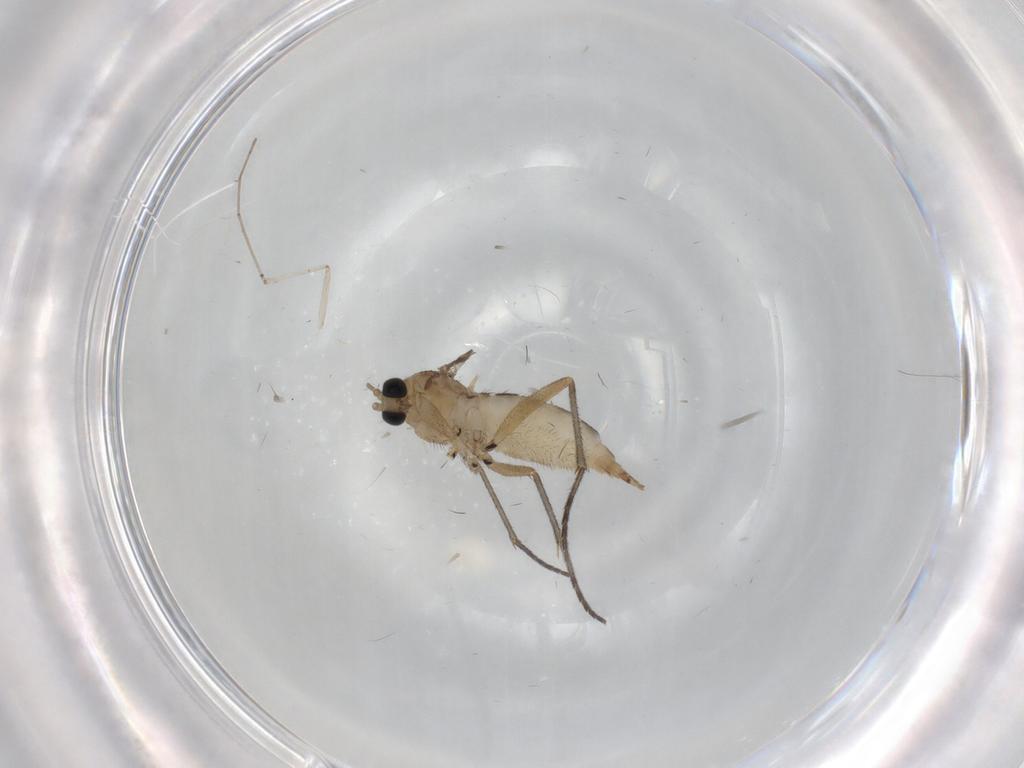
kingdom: Animalia
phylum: Arthropoda
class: Insecta
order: Diptera
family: Sciaridae
